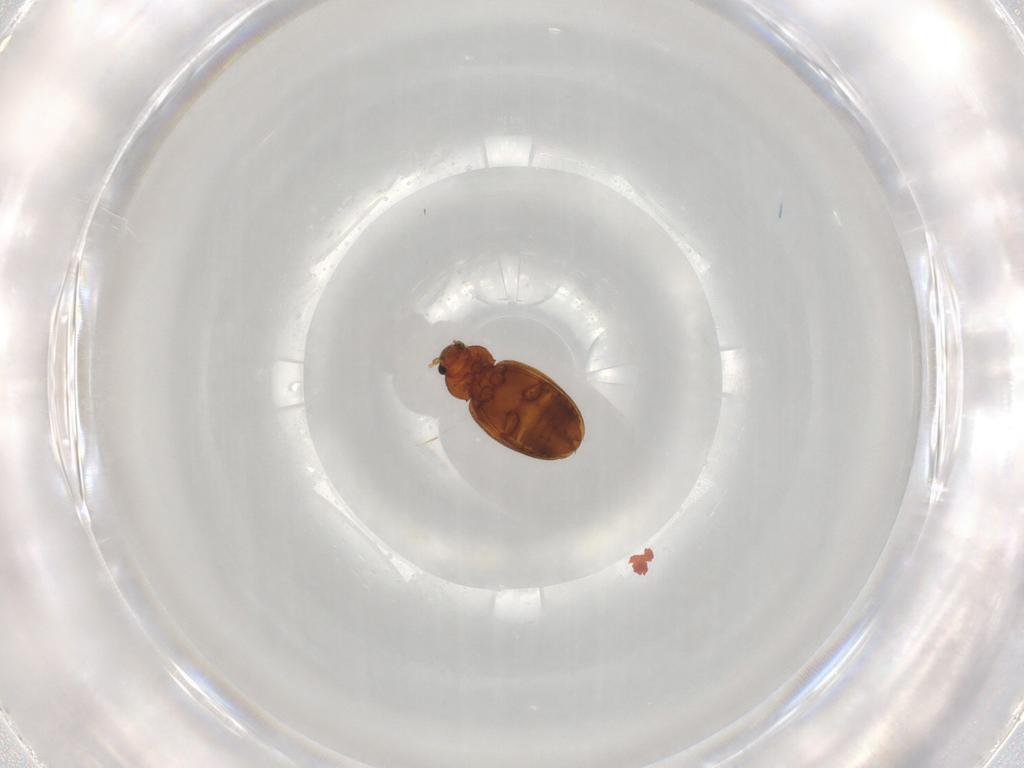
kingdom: Animalia
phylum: Arthropoda
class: Insecta
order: Coleoptera
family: Latridiidae
